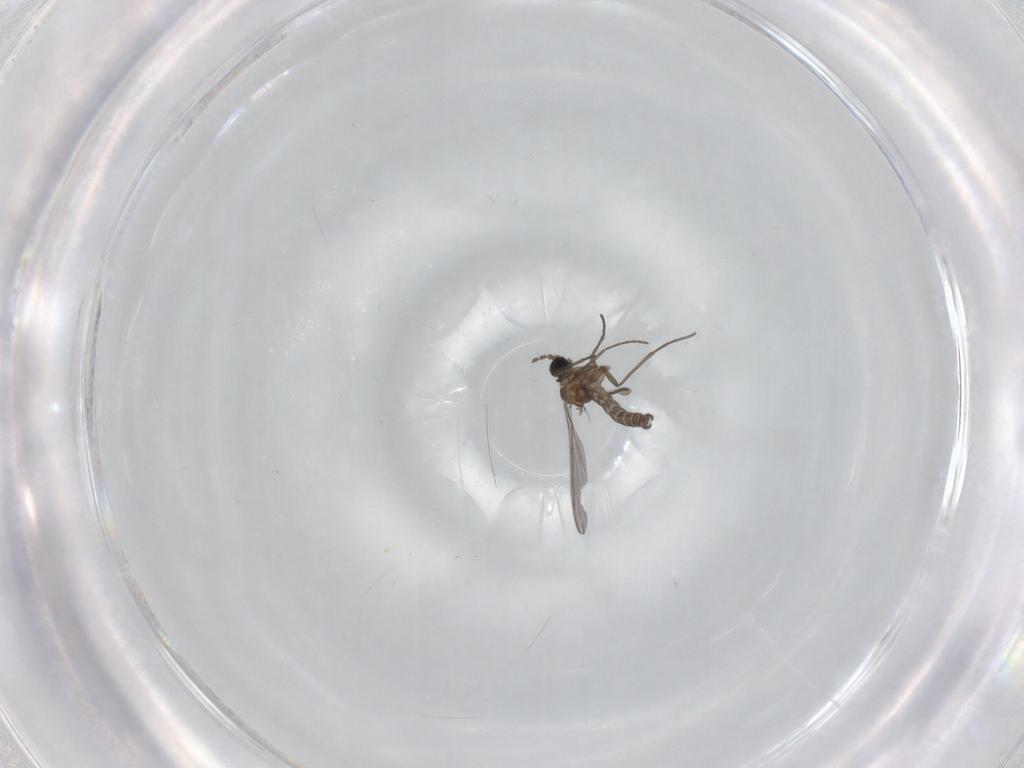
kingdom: Animalia
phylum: Arthropoda
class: Insecta
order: Diptera
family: Sciaridae
